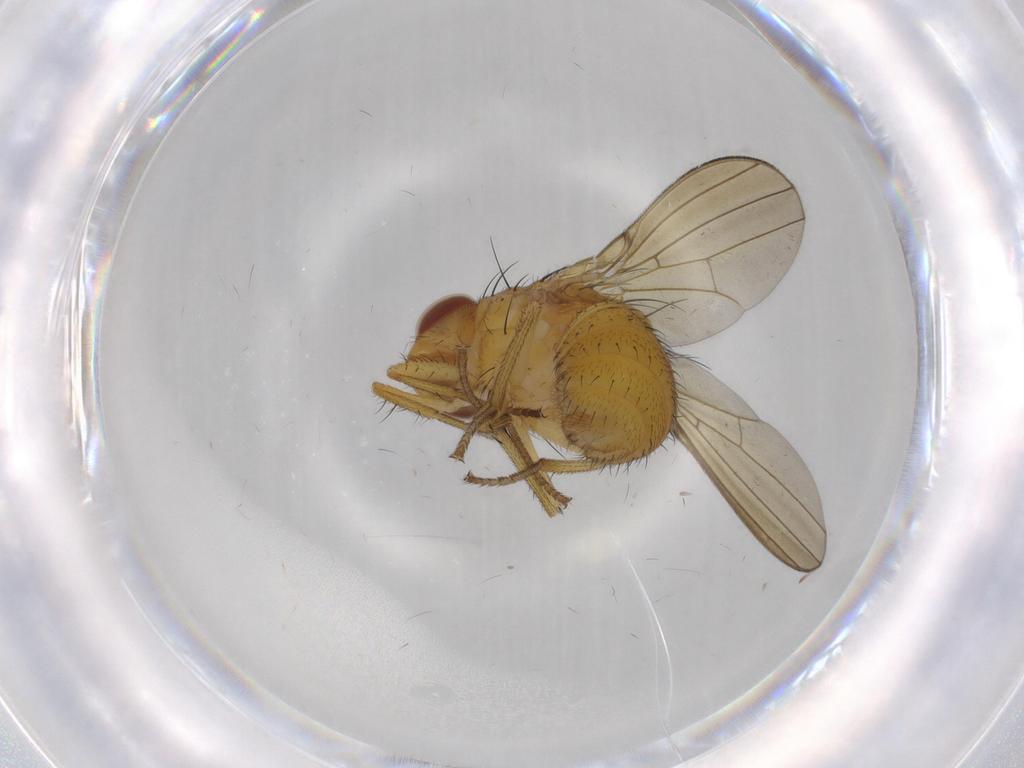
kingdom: Animalia
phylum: Arthropoda
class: Insecta
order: Diptera
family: Lauxaniidae
